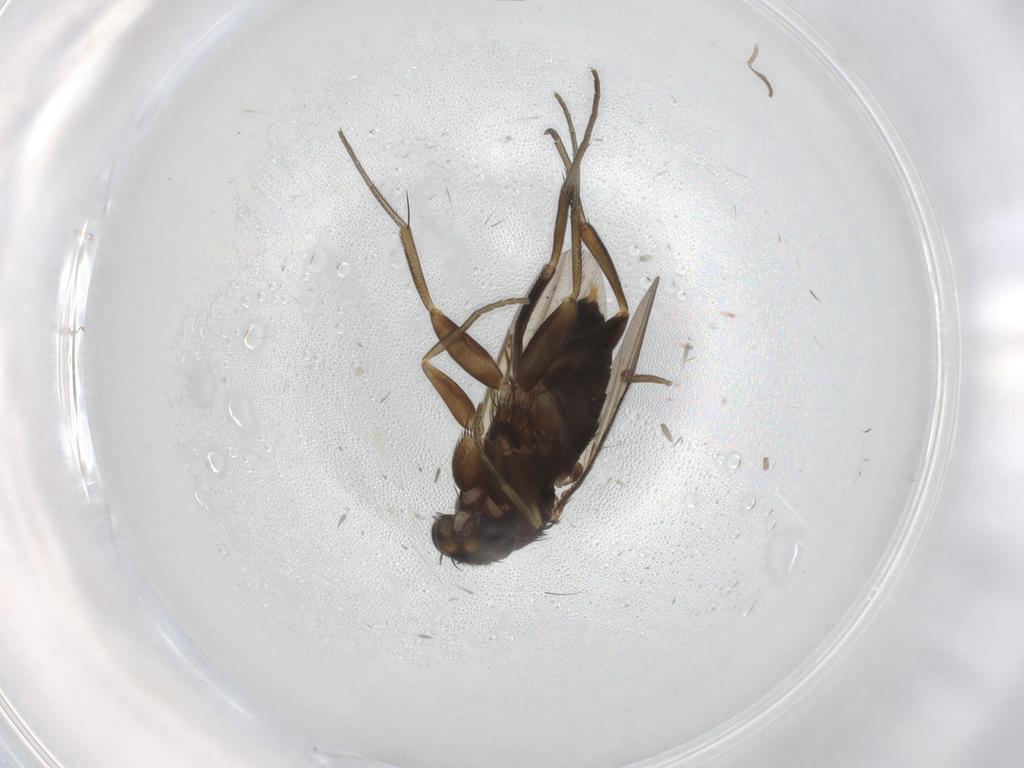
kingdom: Animalia
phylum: Arthropoda
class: Insecta
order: Diptera
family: Phoridae
